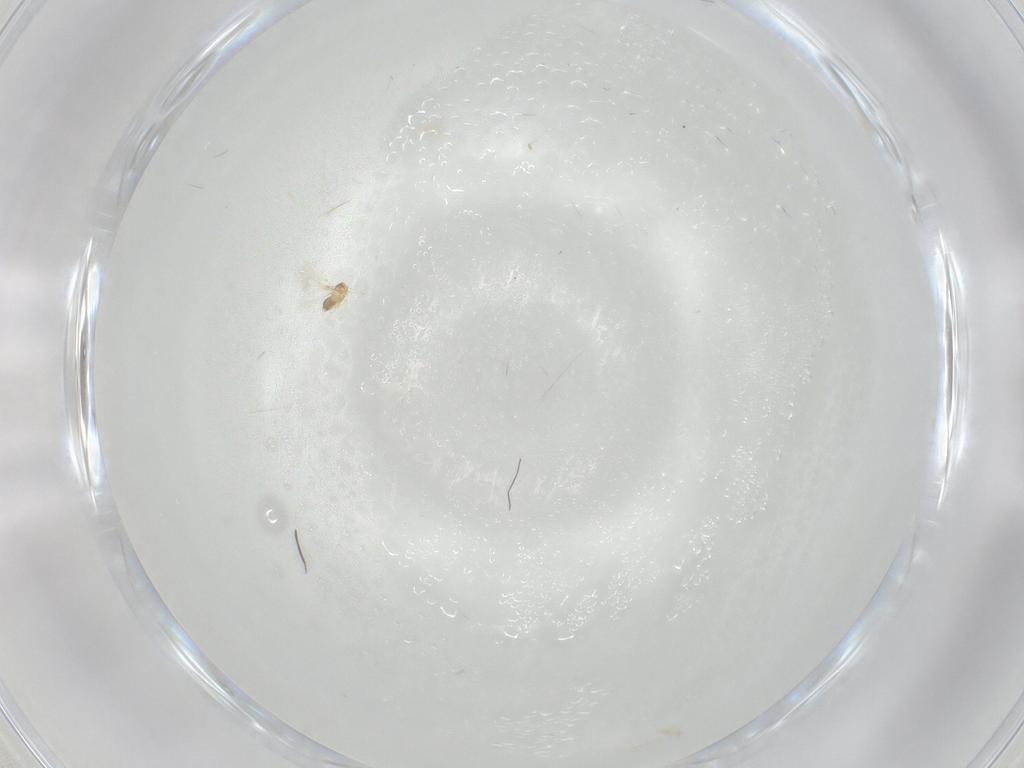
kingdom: Animalia
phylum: Arthropoda
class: Insecta
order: Hymenoptera
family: Mymaridae
